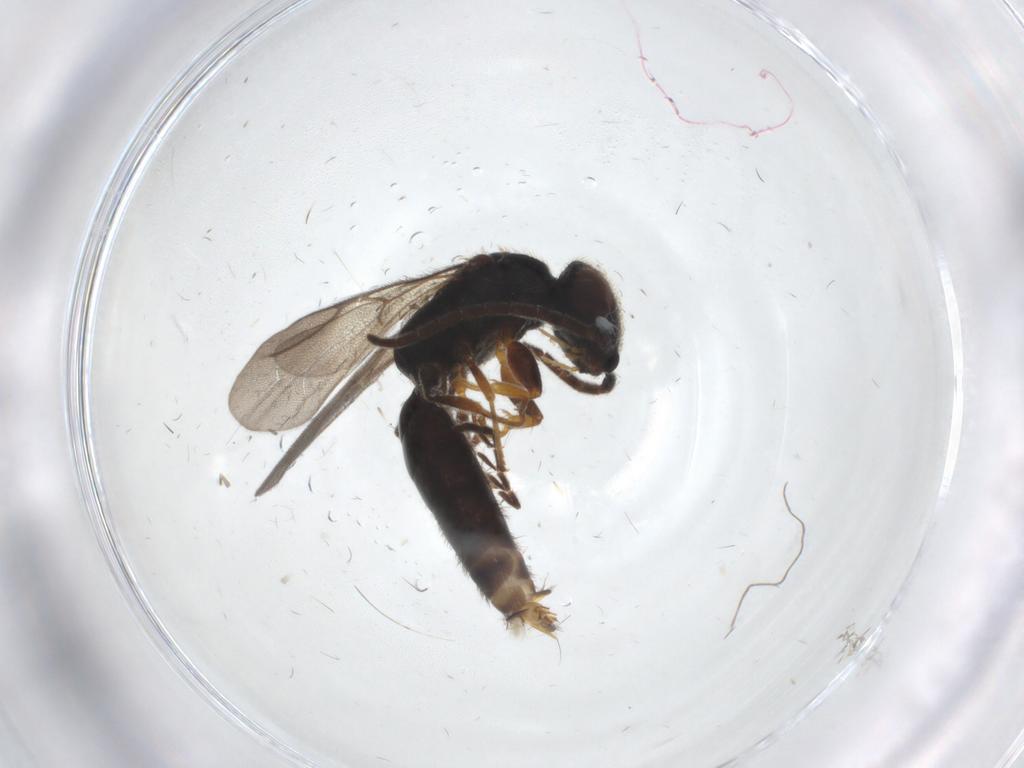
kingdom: Animalia
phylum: Arthropoda
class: Insecta
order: Hymenoptera
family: Bethylidae
